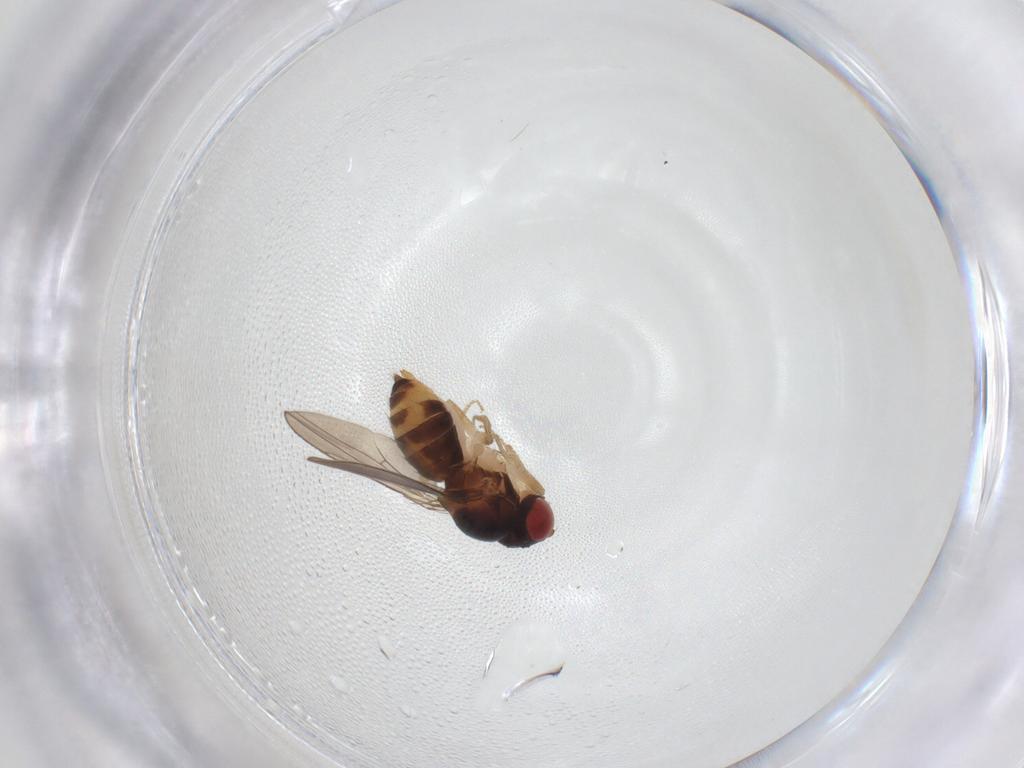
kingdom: Animalia
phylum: Arthropoda
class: Insecta
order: Diptera
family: Drosophilidae
